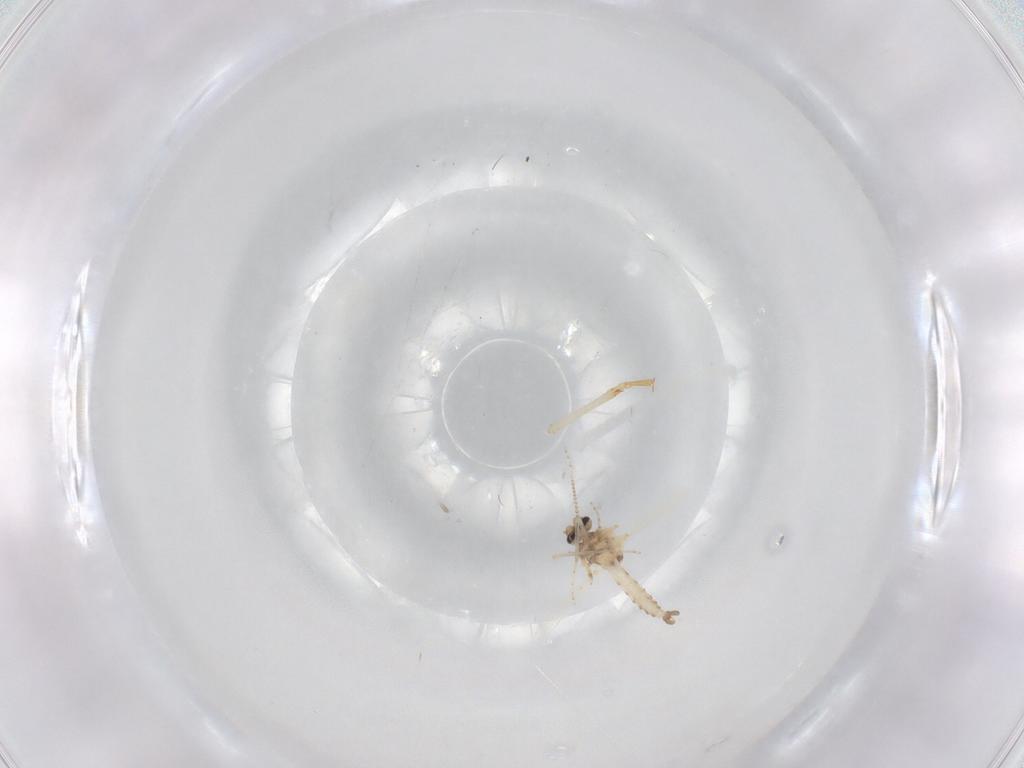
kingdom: Animalia
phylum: Arthropoda
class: Insecta
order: Diptera
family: Ceratopogonidae
